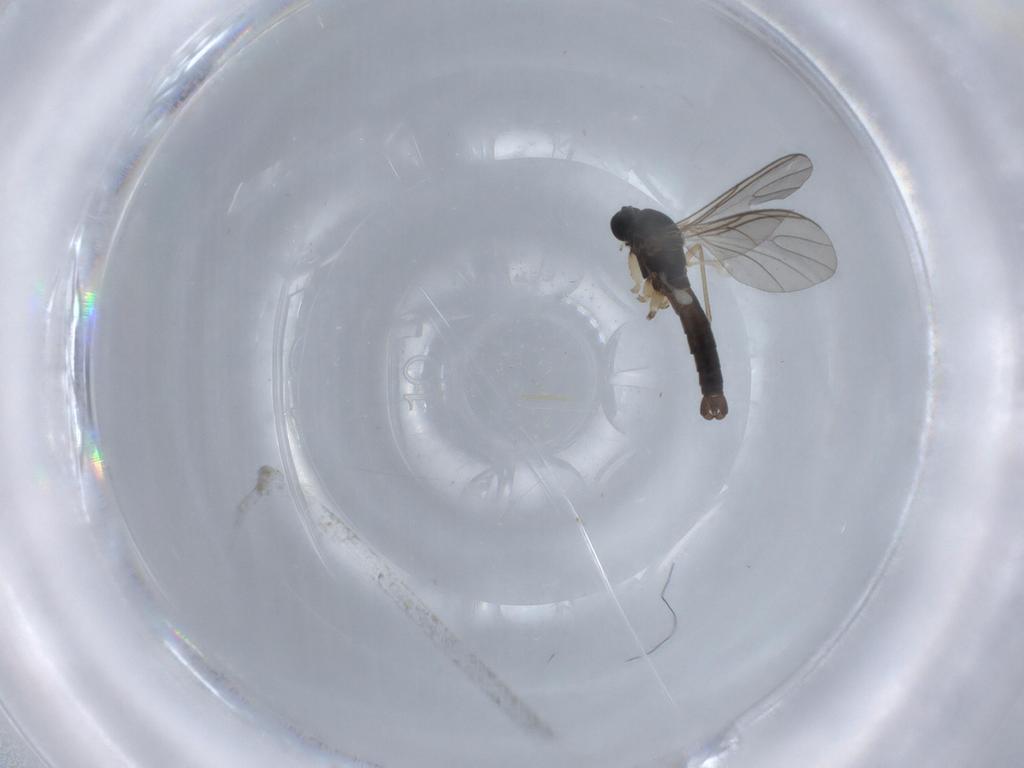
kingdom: Animalia
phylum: Arthropoda
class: Insecta
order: Diptera
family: Sciaridae
